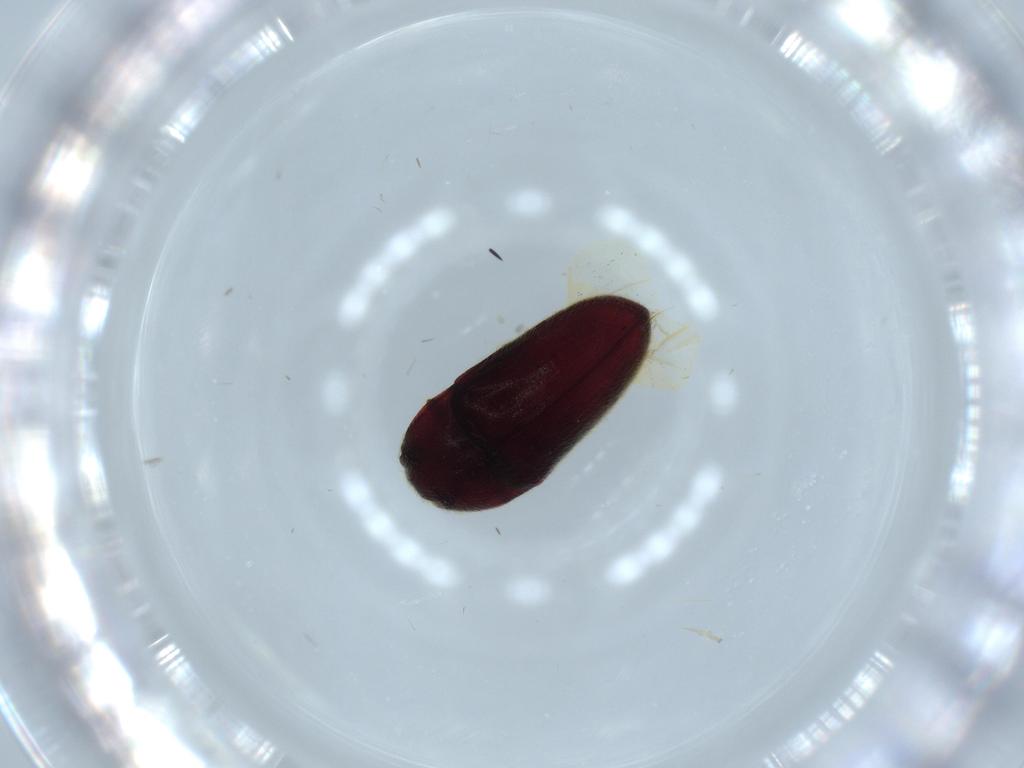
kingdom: Animalia
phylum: Arthropoda
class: Insecta
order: Coleoptera
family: Throscidae
